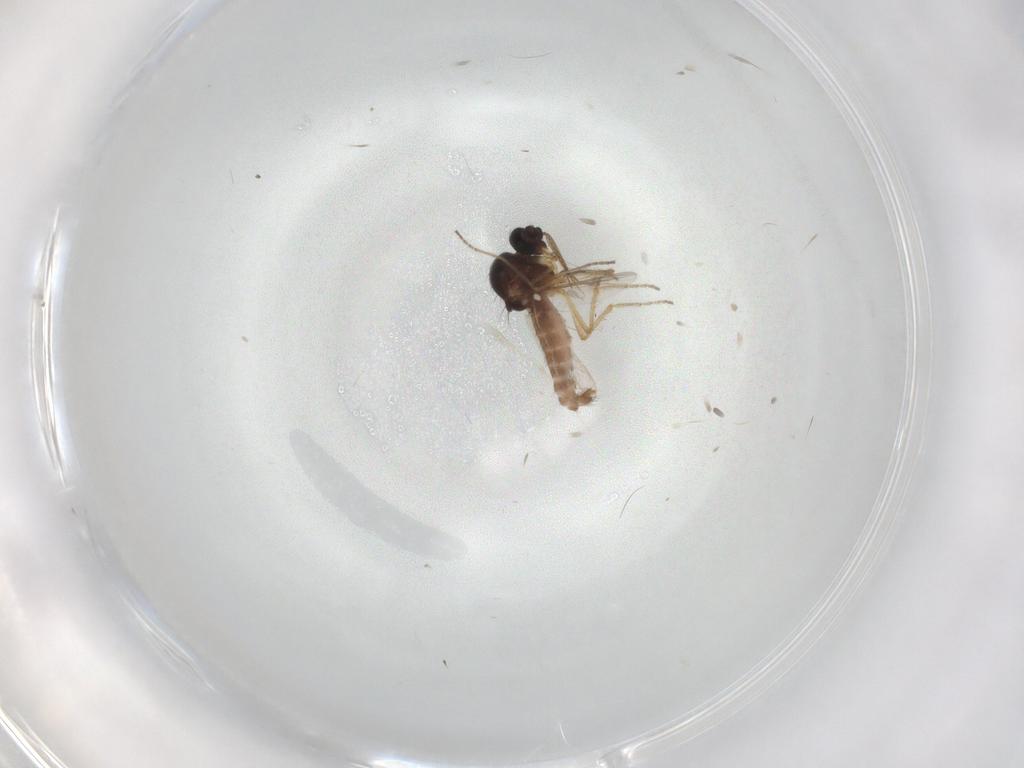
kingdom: Animalia
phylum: Arthropoda
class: Insecta
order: Diptera
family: Ceratopogonidae
